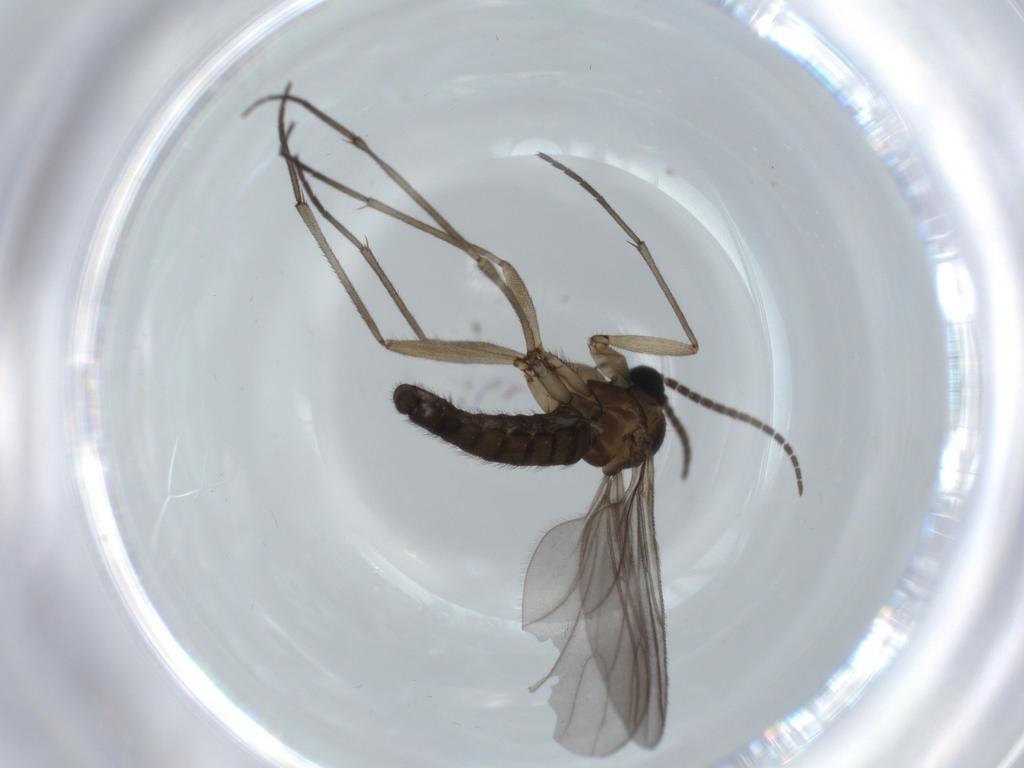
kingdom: Animalia
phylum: Arthropoda
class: Insecta
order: Diptera
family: Sciaridae
